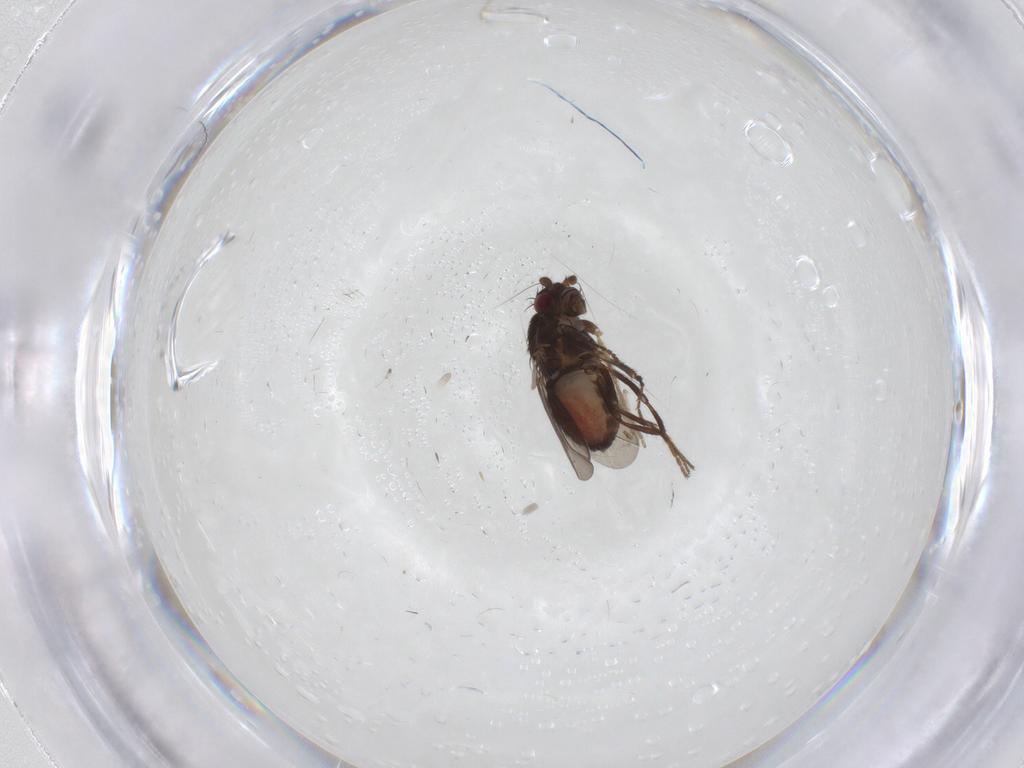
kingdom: Animalia
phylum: Arthropoda
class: Insecta
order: Diptera
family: Sphaeroceridae
